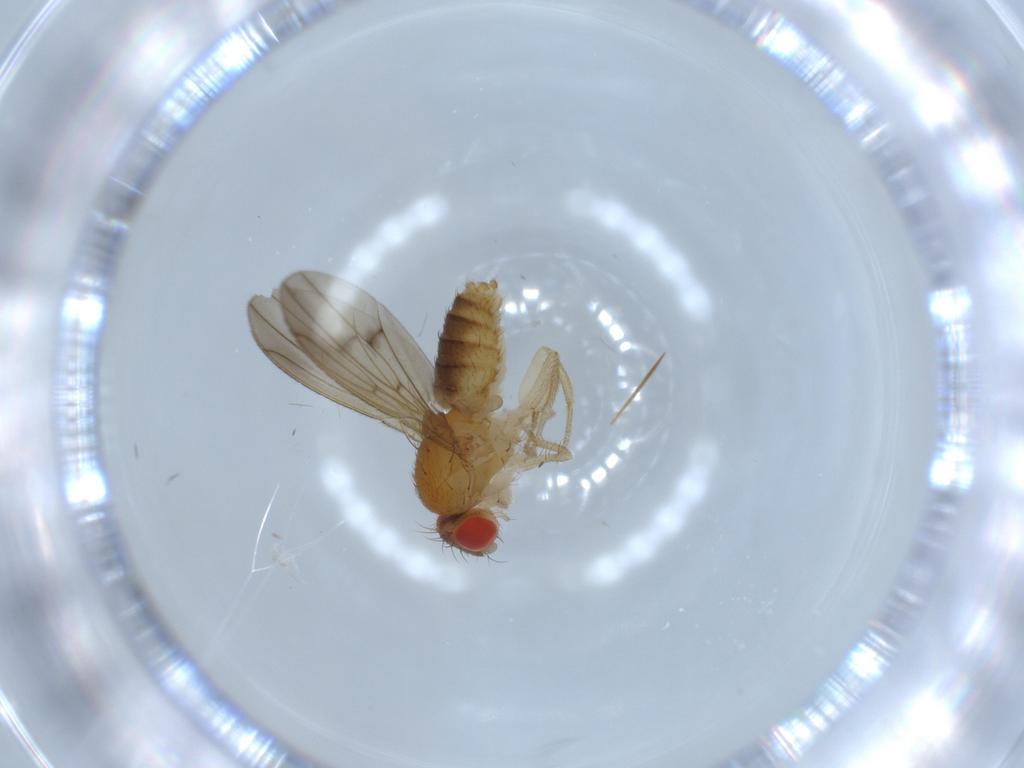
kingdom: Animalia
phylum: Arthropoda
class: Insecta
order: Diptera
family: Drosophilidae
